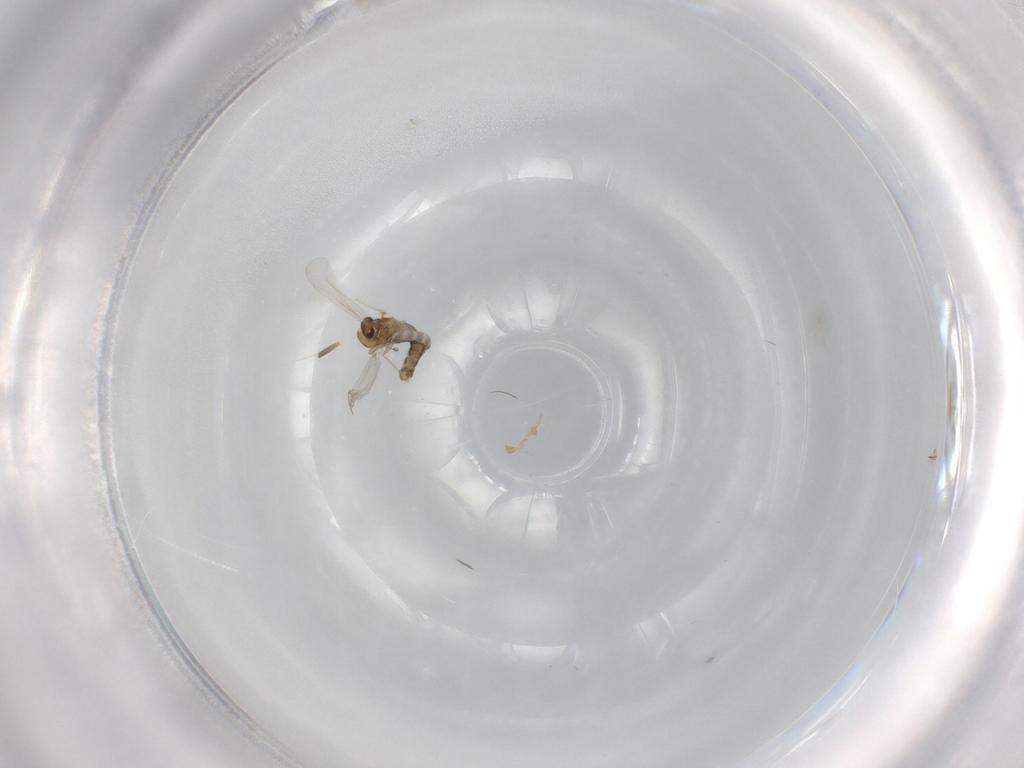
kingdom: Animalia
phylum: Arthropoda
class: Insecta
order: Diptera
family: Chironomidae
